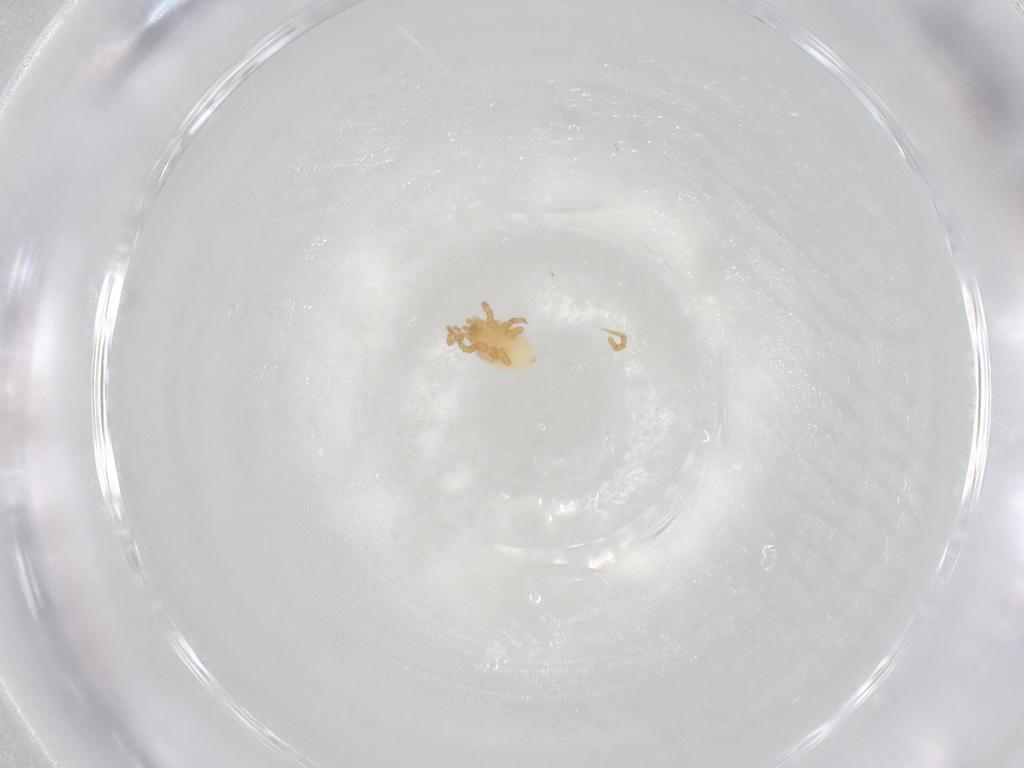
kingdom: Animalia
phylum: Arthropoda
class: Arachnida
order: Mesostigmata
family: Parasitidae
